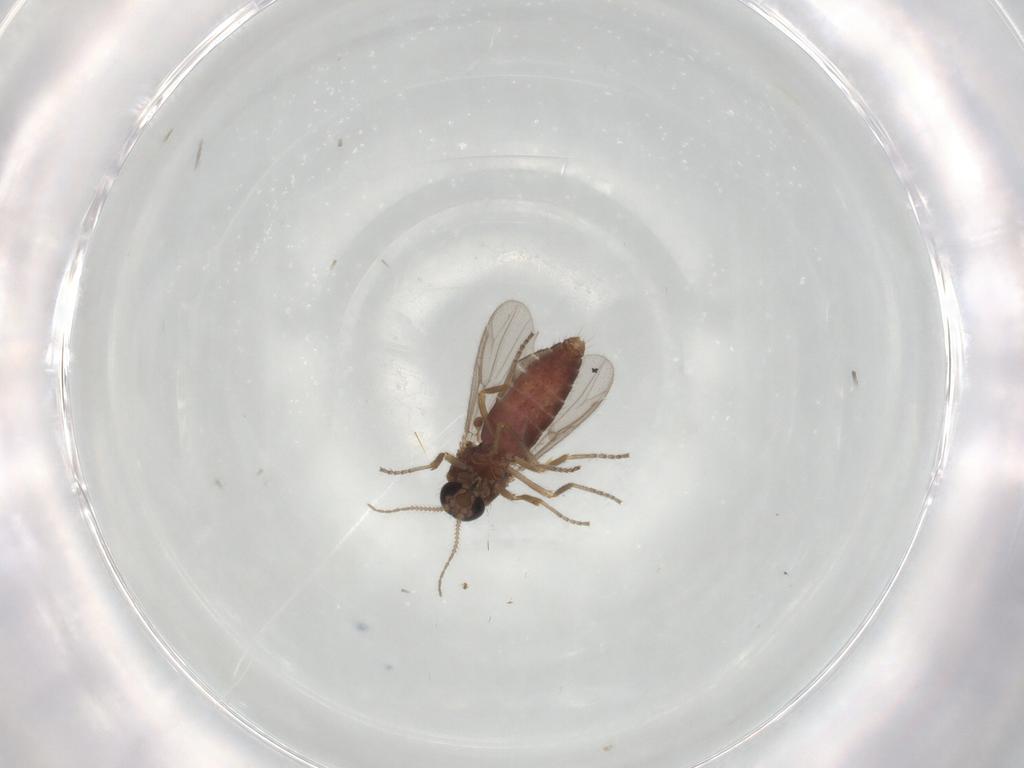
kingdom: Animalia
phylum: Arthropoda
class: Insecta
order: Diptera
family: Ceratopogonidae
